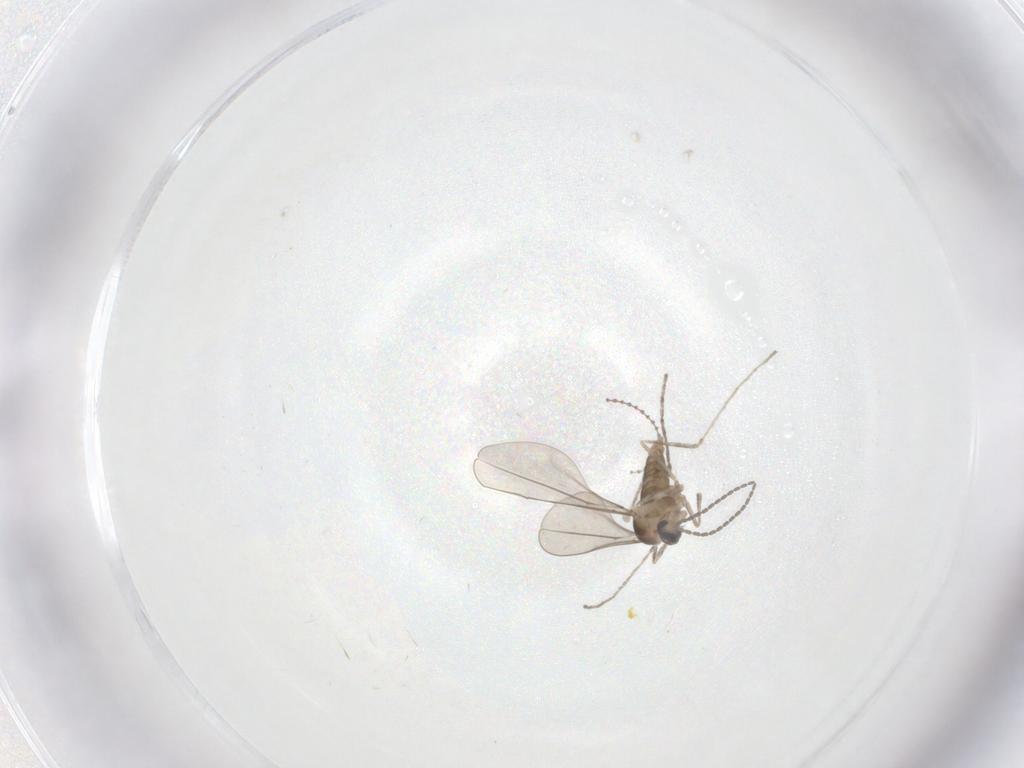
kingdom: Animalia
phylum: Arthropoda
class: Insecta
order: Diptera
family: Cecidomyiidae
